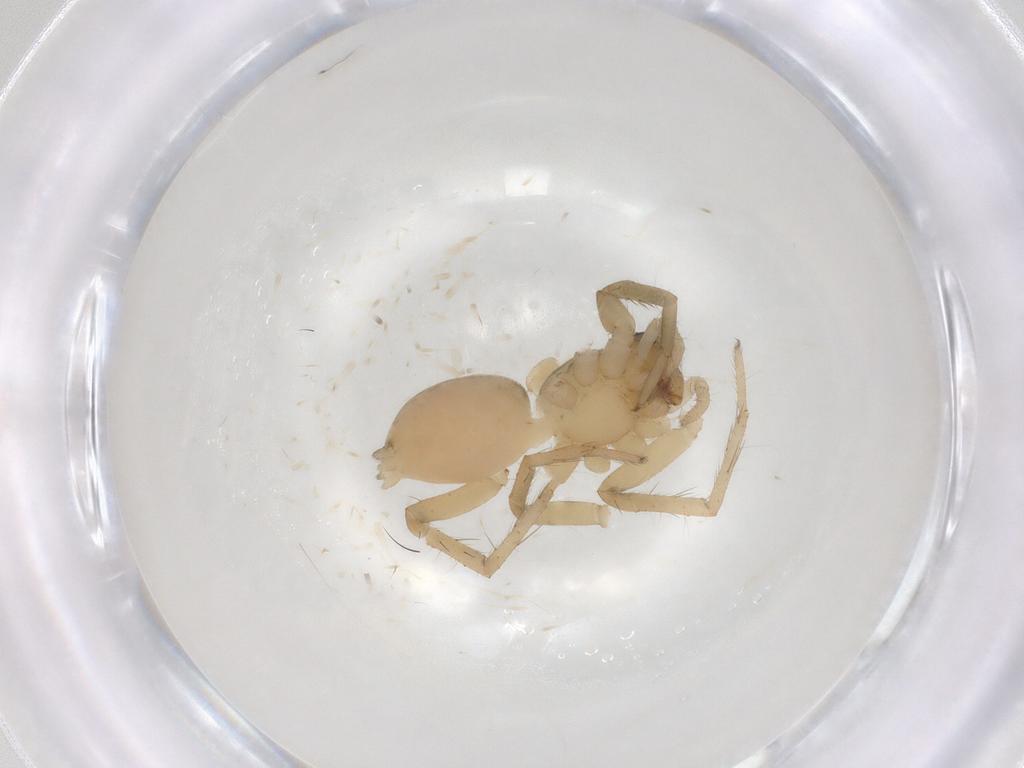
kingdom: Animalia
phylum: Arthropoda
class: Arachnida
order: Araneae
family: Lycosidae
